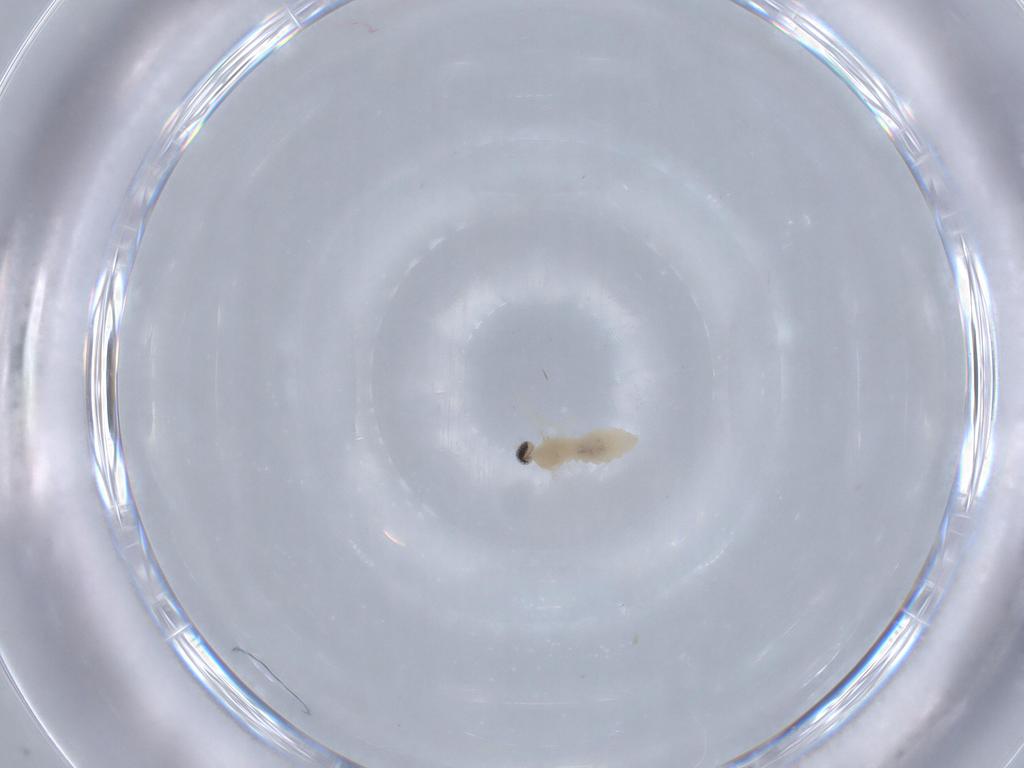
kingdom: Animalia
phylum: Arthropoda
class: Insecta
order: Diptera
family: Cecidomyiidae
